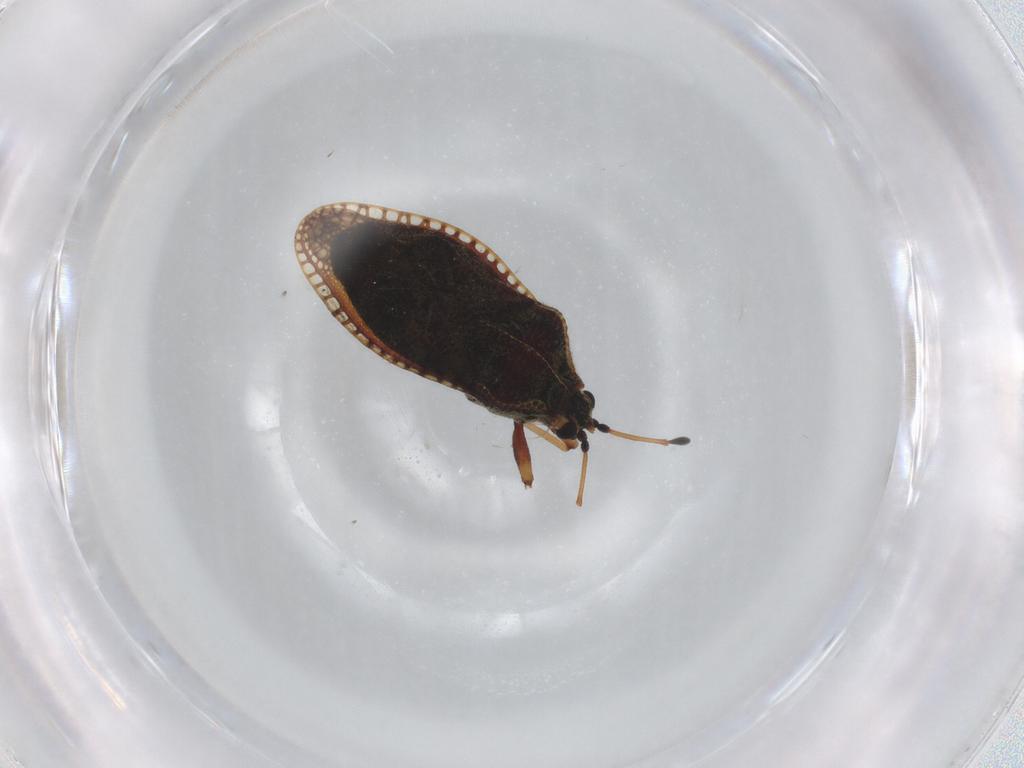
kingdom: Animalia
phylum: Arthropoda
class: Insecta
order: Hemiptera
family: Tingidae
